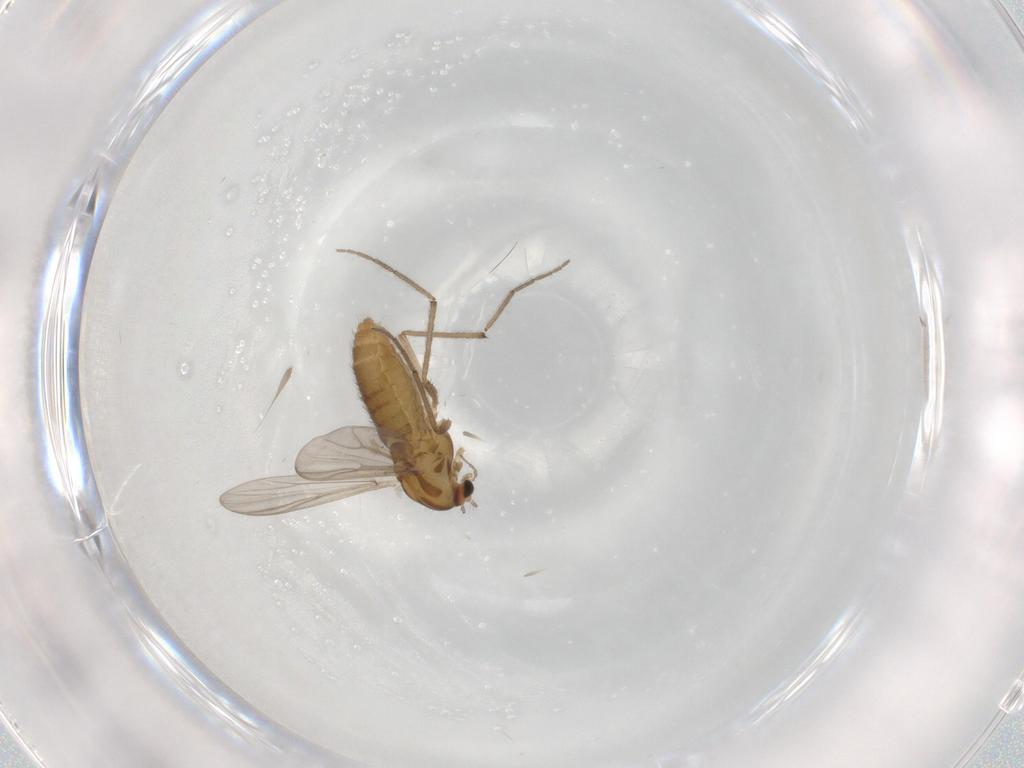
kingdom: Animalia
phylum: Arthropoda
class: Insecta
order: Diptera
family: Chironomidae
